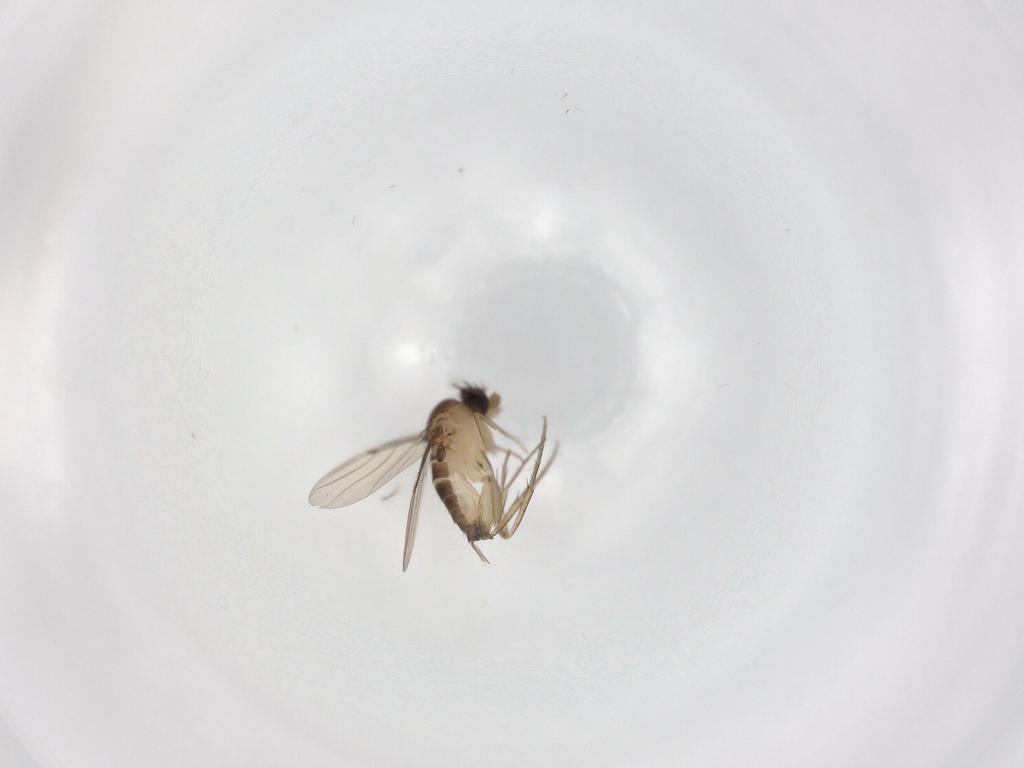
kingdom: Animalia
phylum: Arthropoda
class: Insecta
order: Diptera
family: Phoridae
